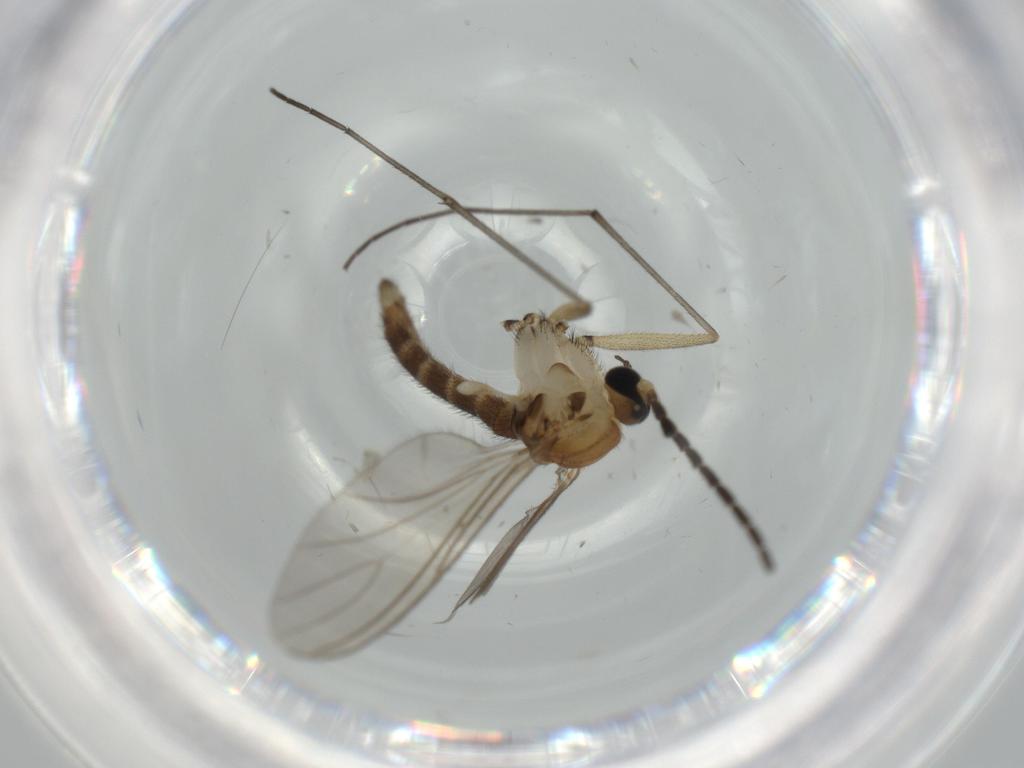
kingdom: Animalia
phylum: Arthropoda
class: Insecta
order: Diptera
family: Sciaridae
